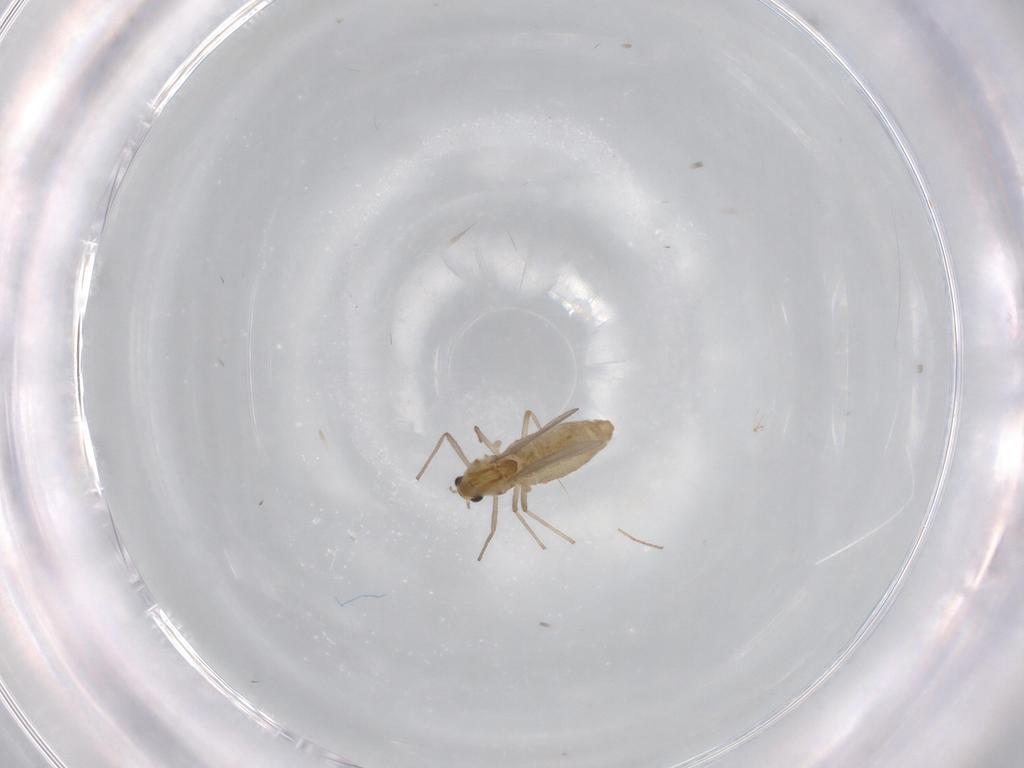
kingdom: Animalia
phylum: Arthropoda
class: Insecta
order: Diptera
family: Chironomidae
